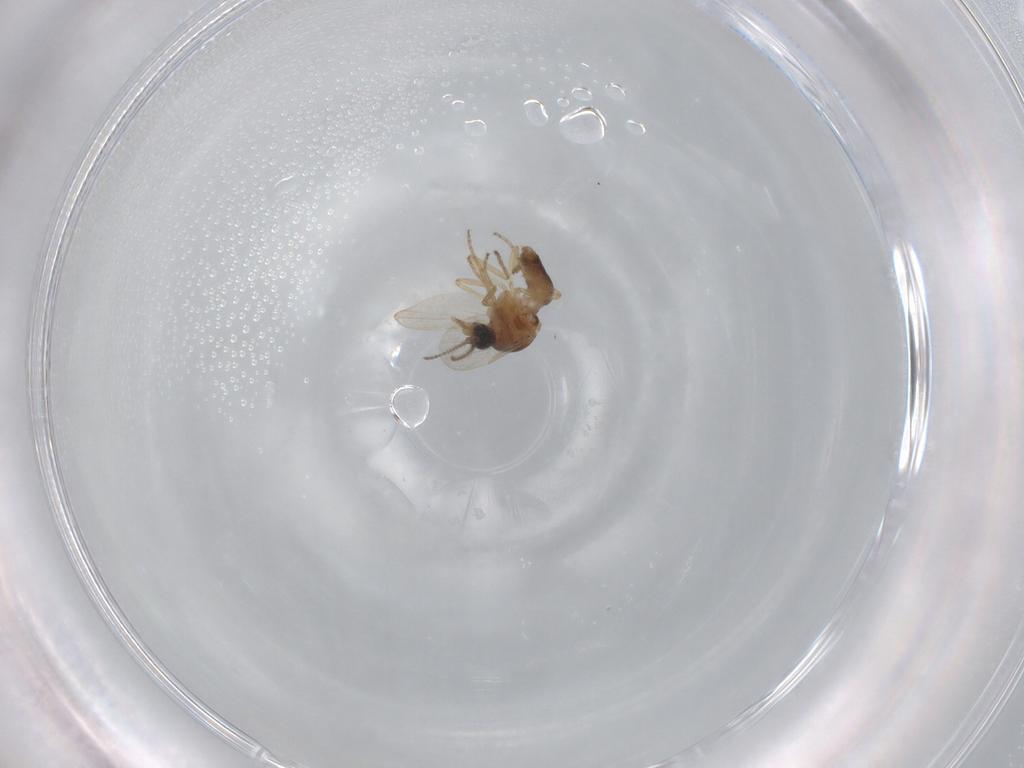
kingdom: Animalia
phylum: Arthropoda
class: Insecta
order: Diptera
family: Ceratopogonidae
